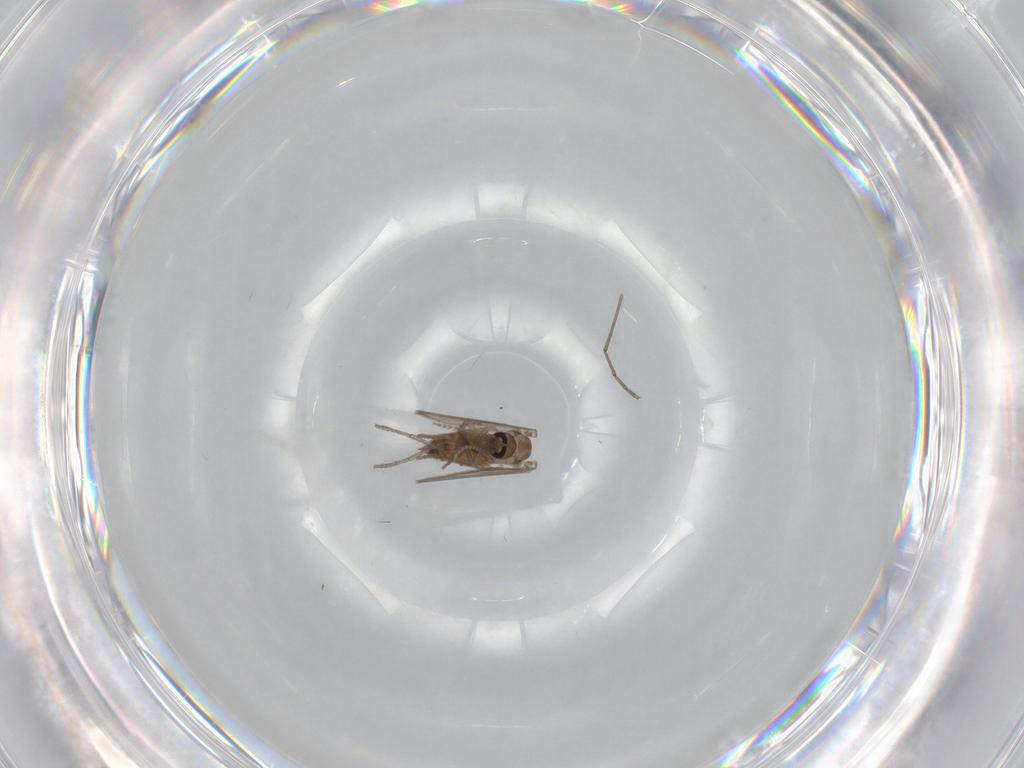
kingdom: Animalia
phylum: Arthropoda
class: Insecta
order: Diptera
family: Psychodidae
